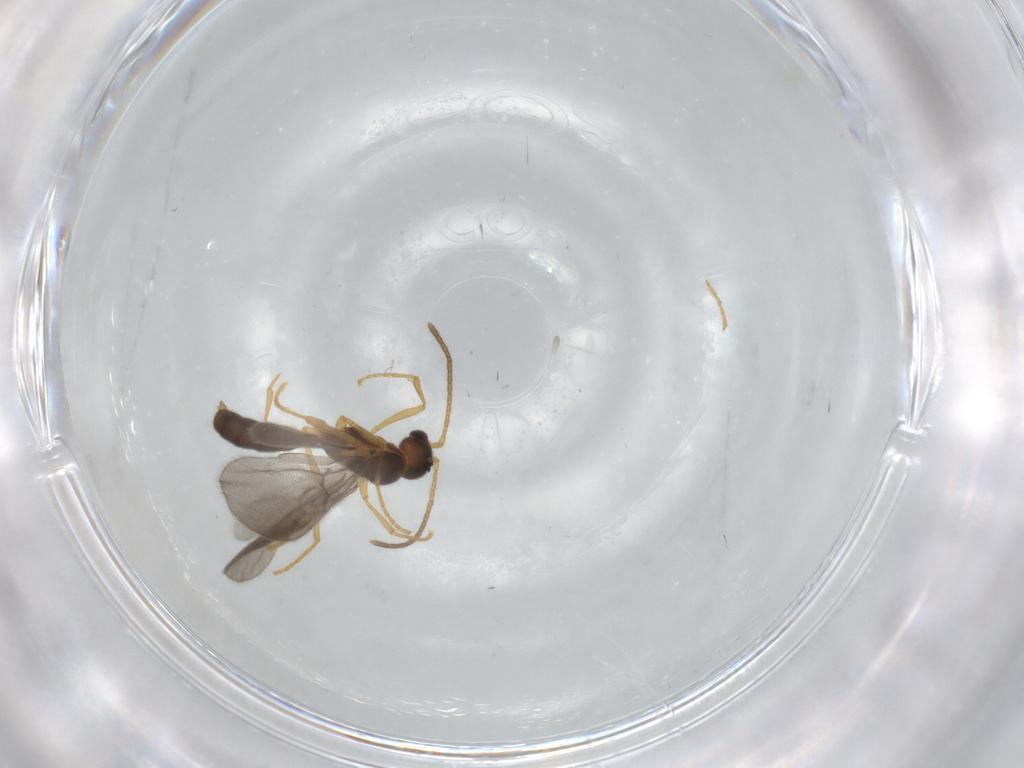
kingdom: Animalia
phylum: Arthropoda
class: Insecta
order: Hymenoptera
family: Formicidae
